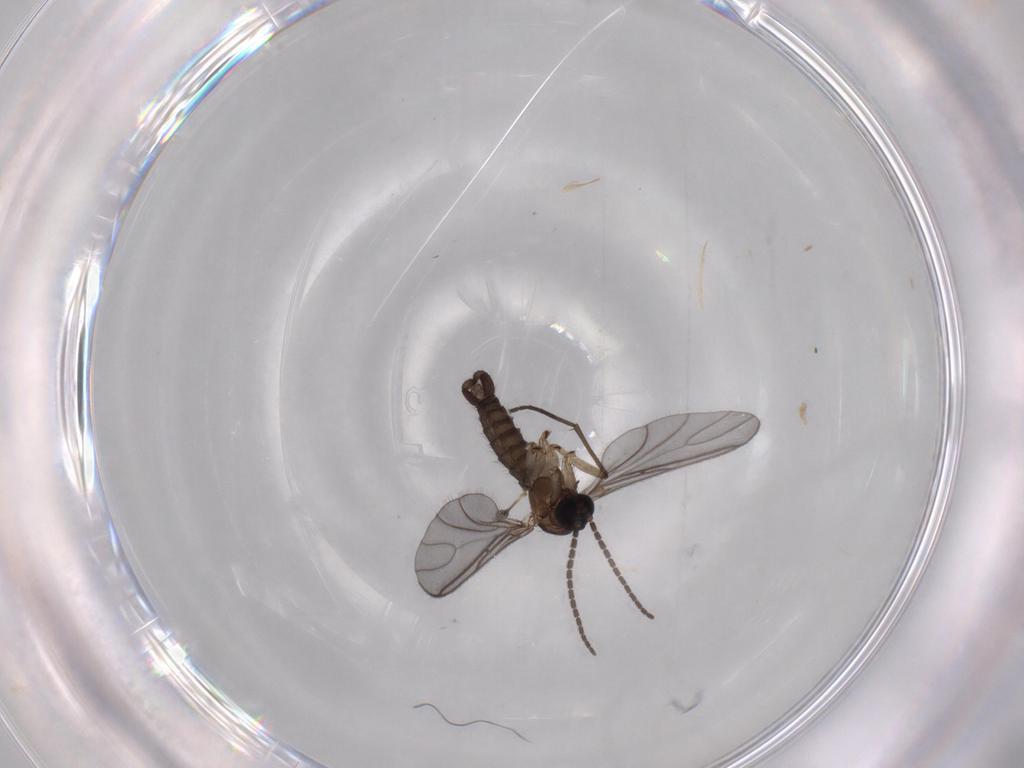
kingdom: Animalia
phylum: Arthropoda
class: Insecta
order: Diptera
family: Sciaridae
